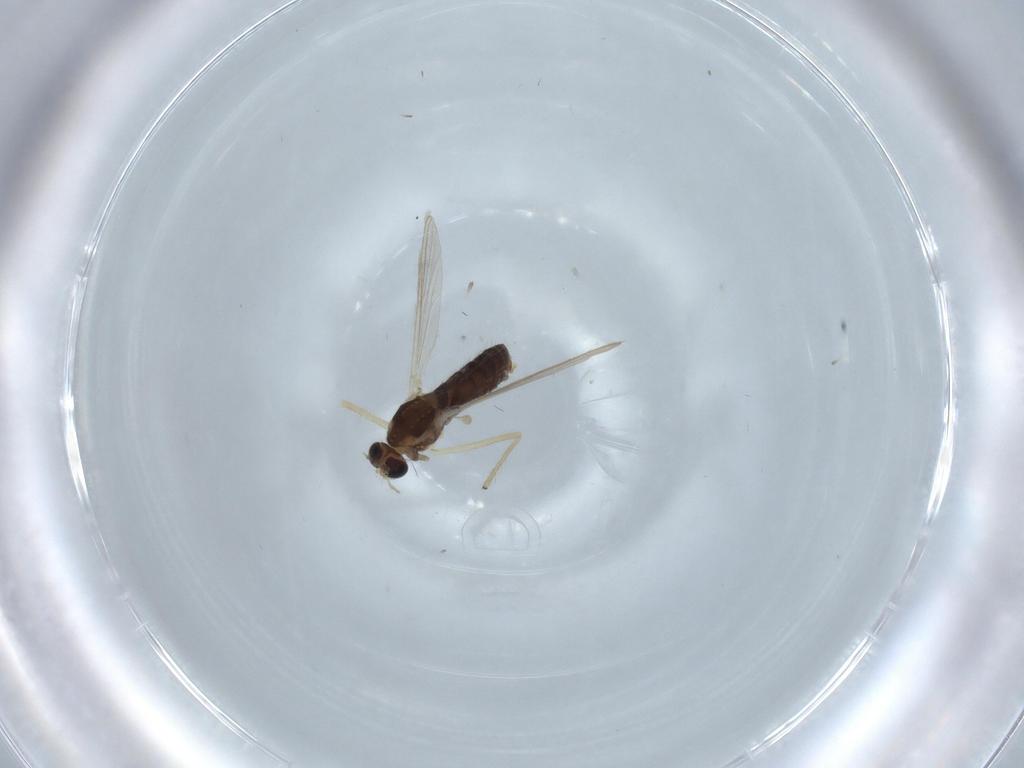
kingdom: Animalia
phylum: Arthropoda
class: Insecta
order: Diptera
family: Chironomidae
